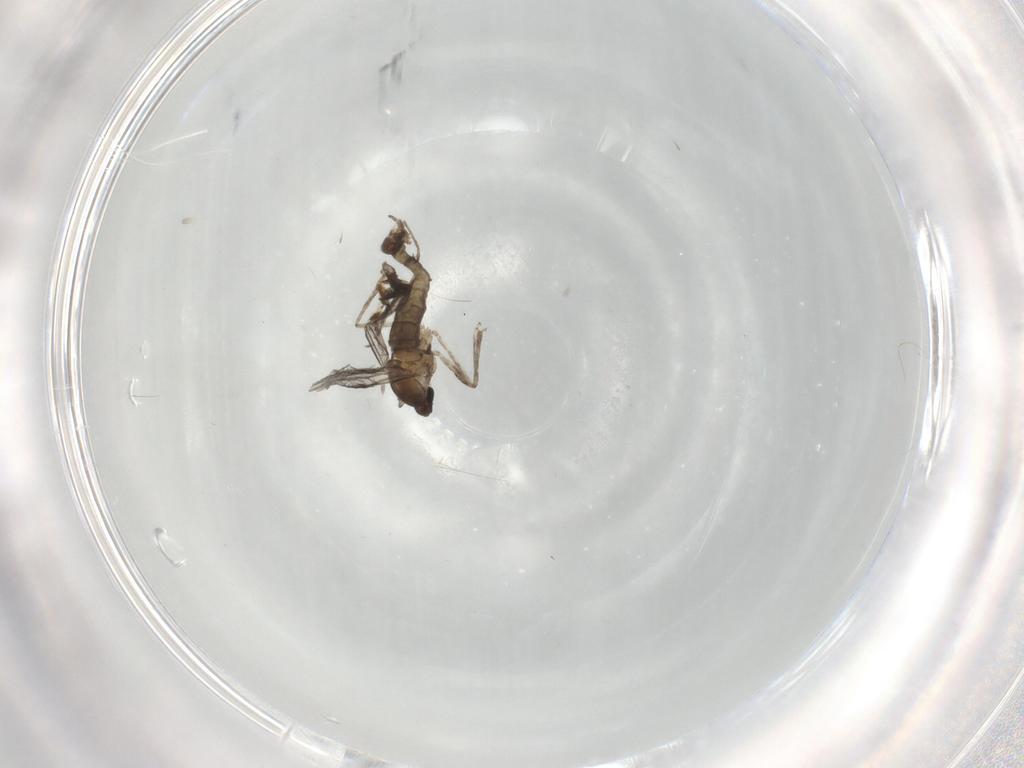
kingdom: Animalia
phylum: Arthropoda
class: Insecta
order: Diptera
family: Cecidomyiidae
